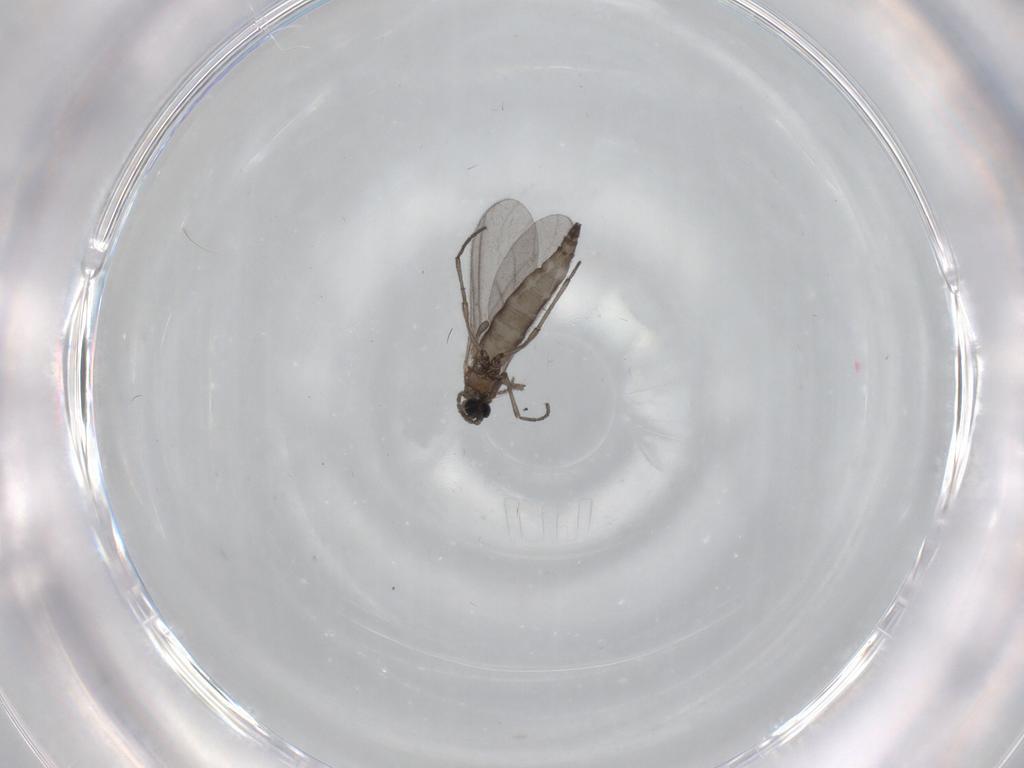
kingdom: Animalia
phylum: Arthropoda
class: Insecta
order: Diptera
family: Sciaridae
